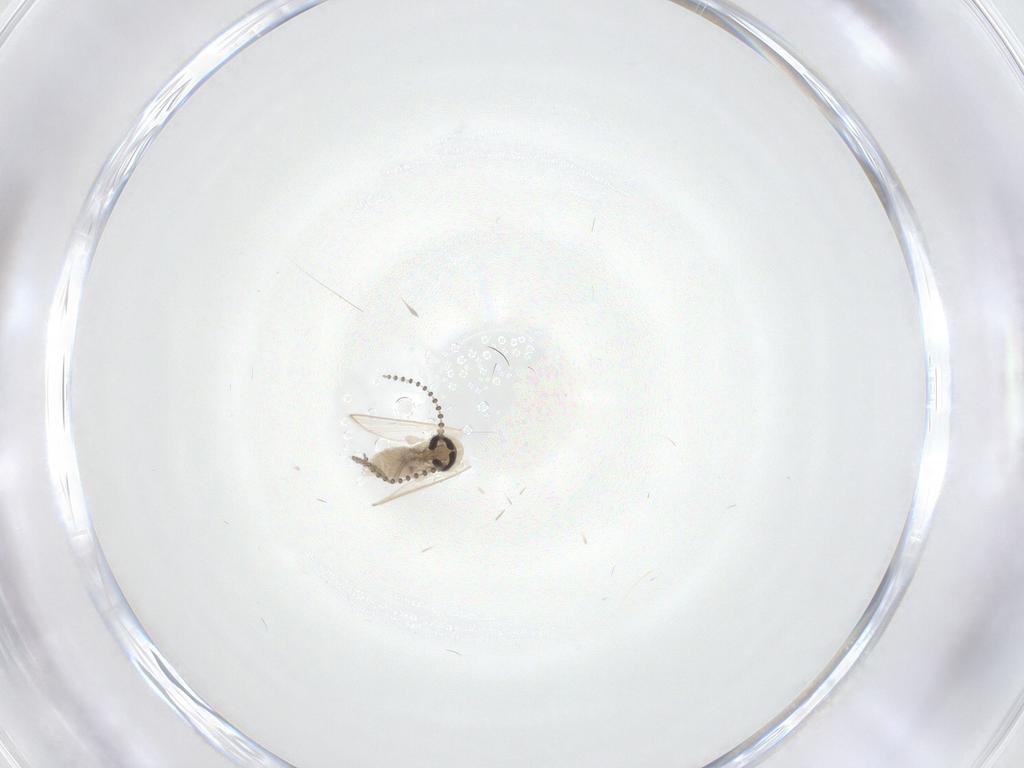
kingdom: Animalia
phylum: Arthropoda
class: Insecta
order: Diptera
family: Psychodidae
